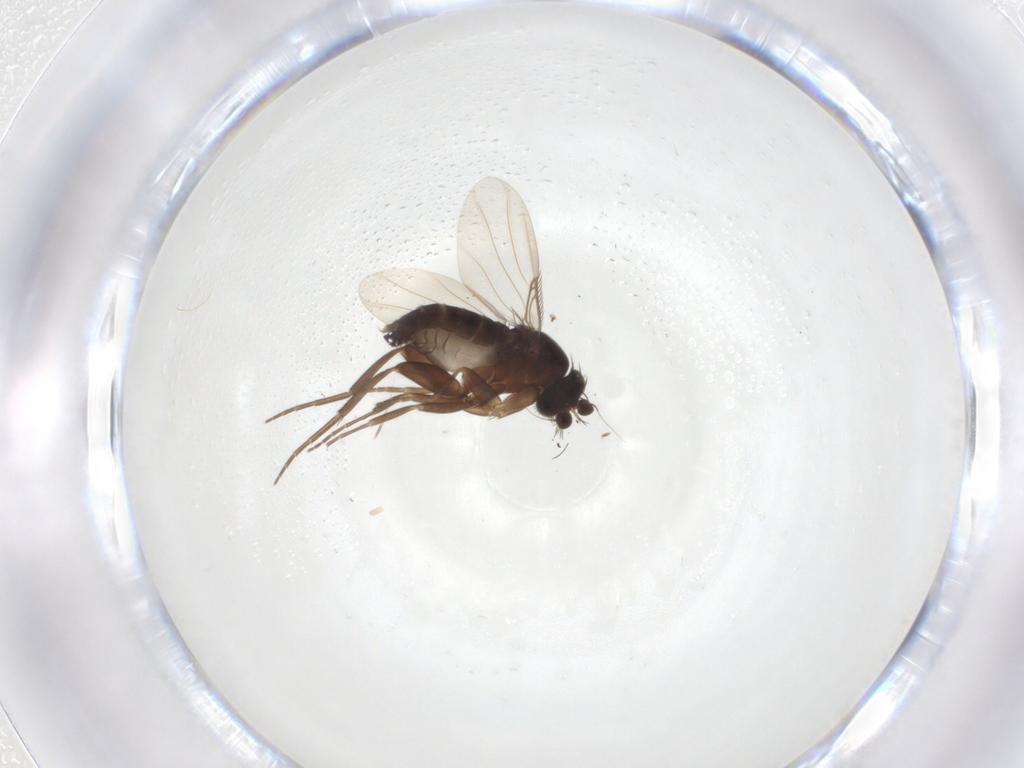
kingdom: Animalia
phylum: Arthropoda
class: Insecta
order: Diptera
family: Phoridae
